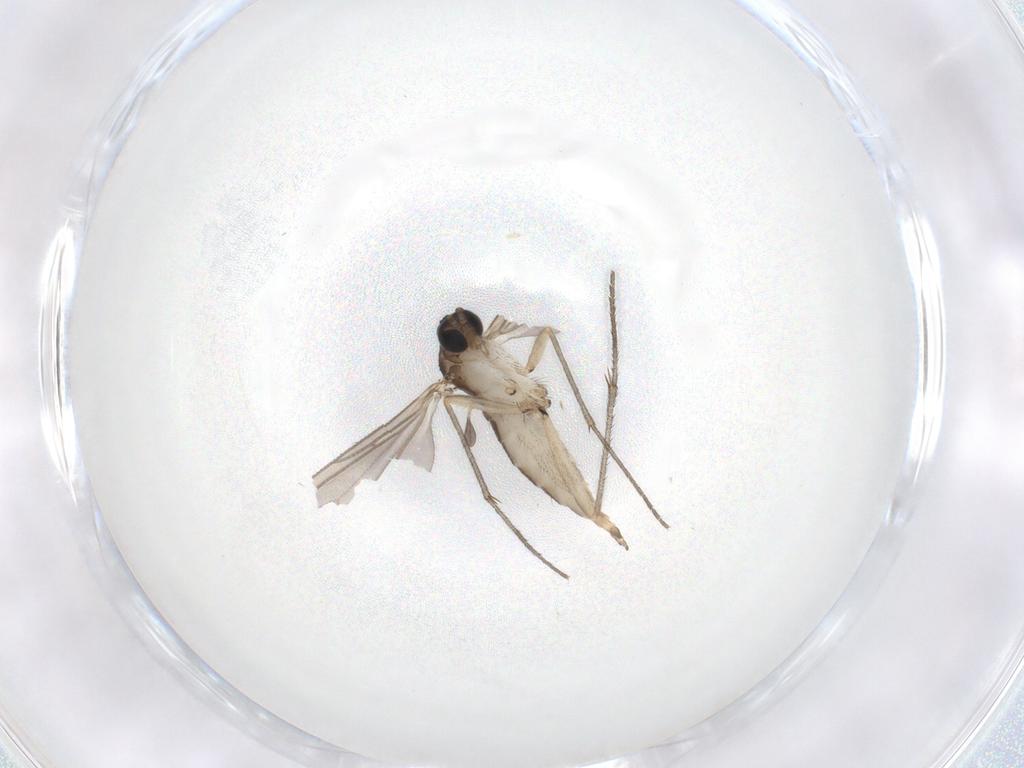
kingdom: Animalia
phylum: Arthropoda
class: Insecta
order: Diptera
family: Sciaridae
